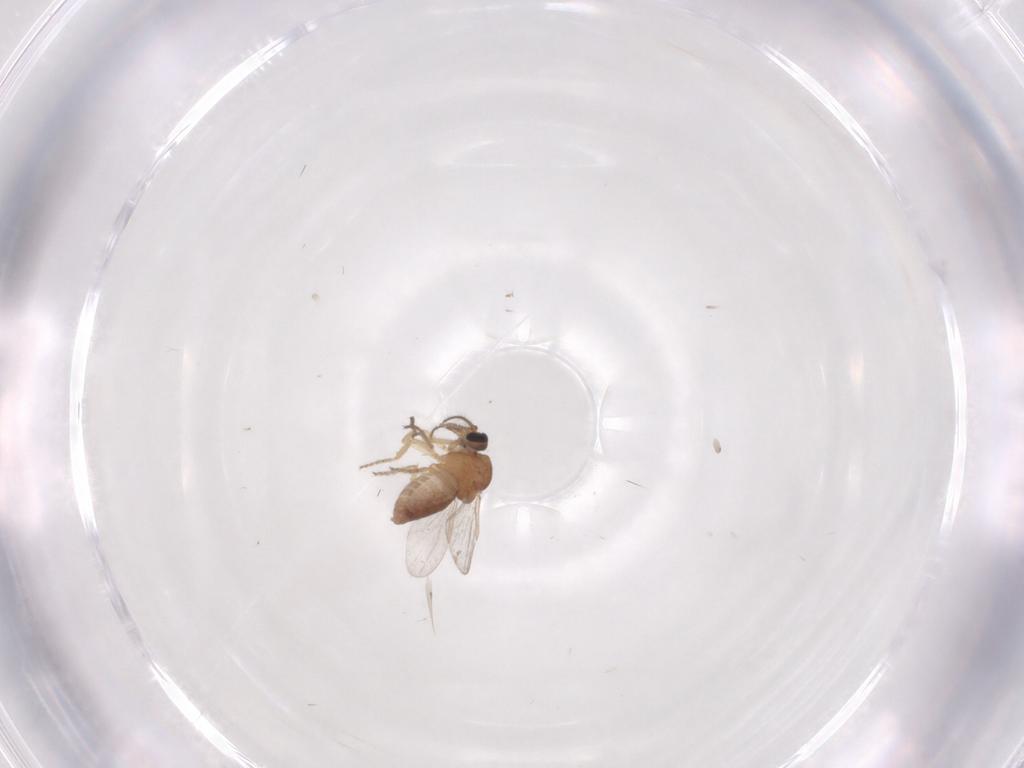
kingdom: Animalia
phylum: Arthropoda
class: Insecta
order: Diptera
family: Ceratopogonidae
